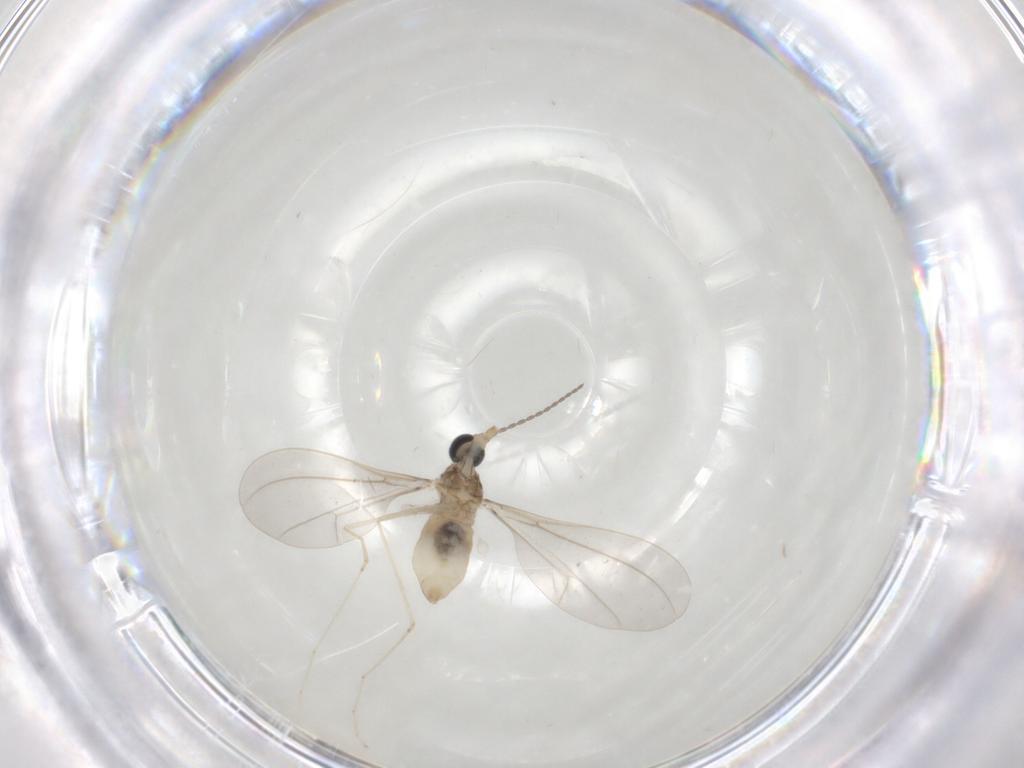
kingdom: Animalia
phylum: Arthropoda
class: Insecta
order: Diptera
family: Cecidomyiidae
